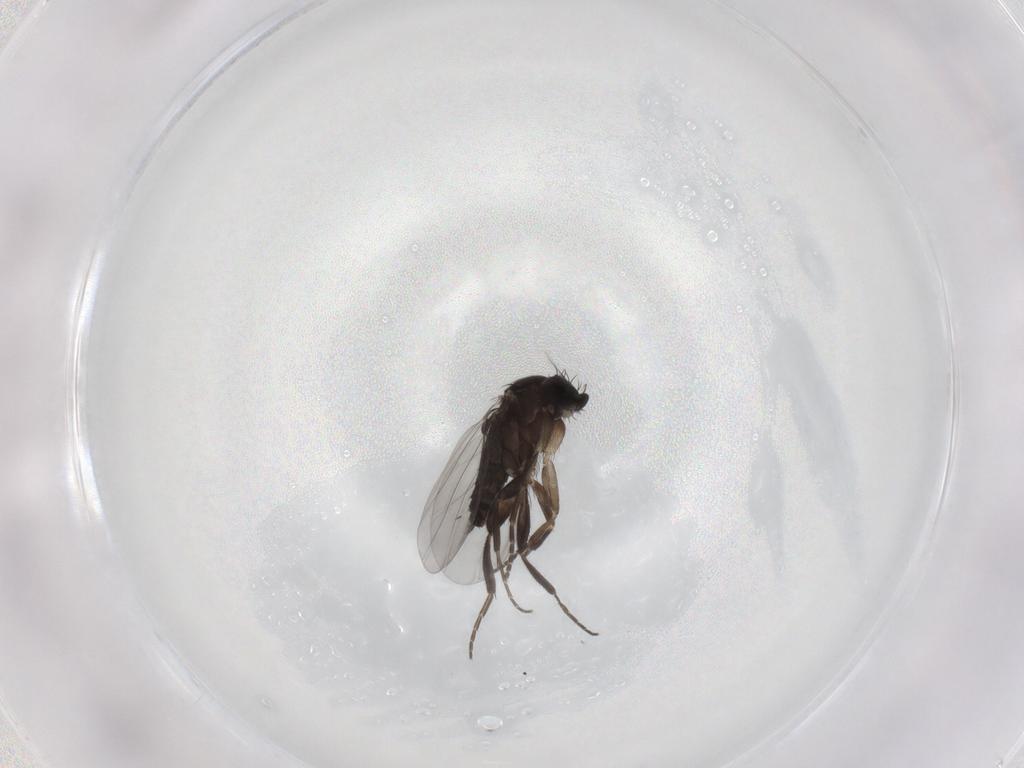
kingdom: Animalia
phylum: Arthropoda
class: Insecta
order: Diptera
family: Phoridae
